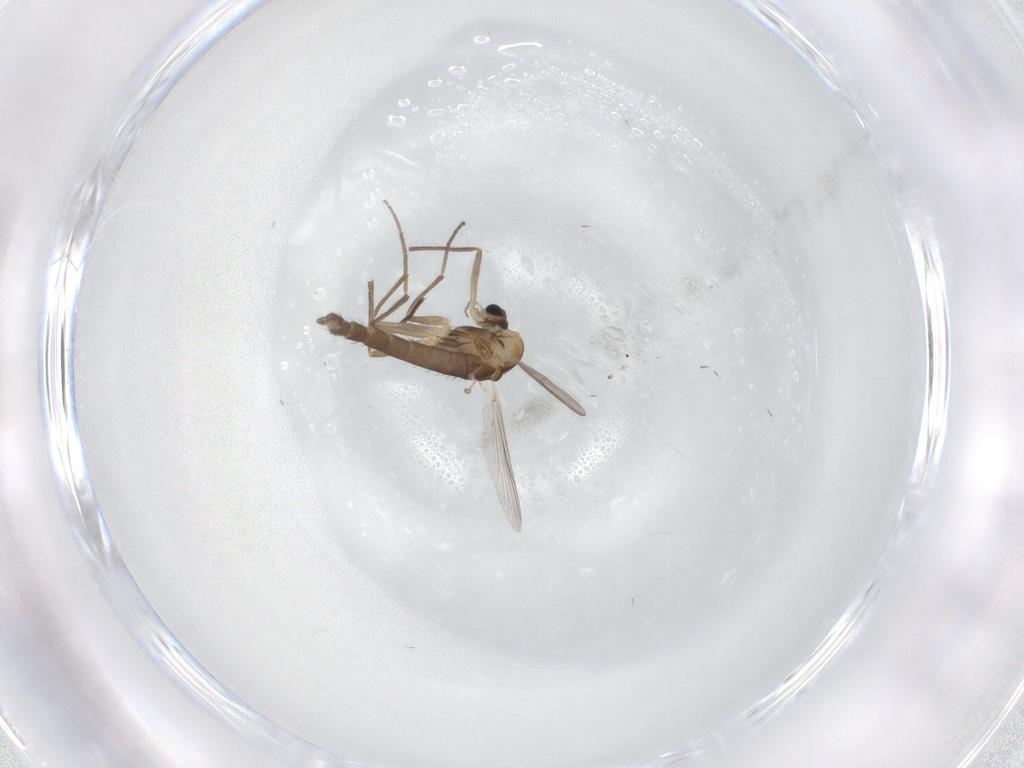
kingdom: Animalia
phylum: Arthropoda
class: Insecta
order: Diptera
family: Chironomidae
